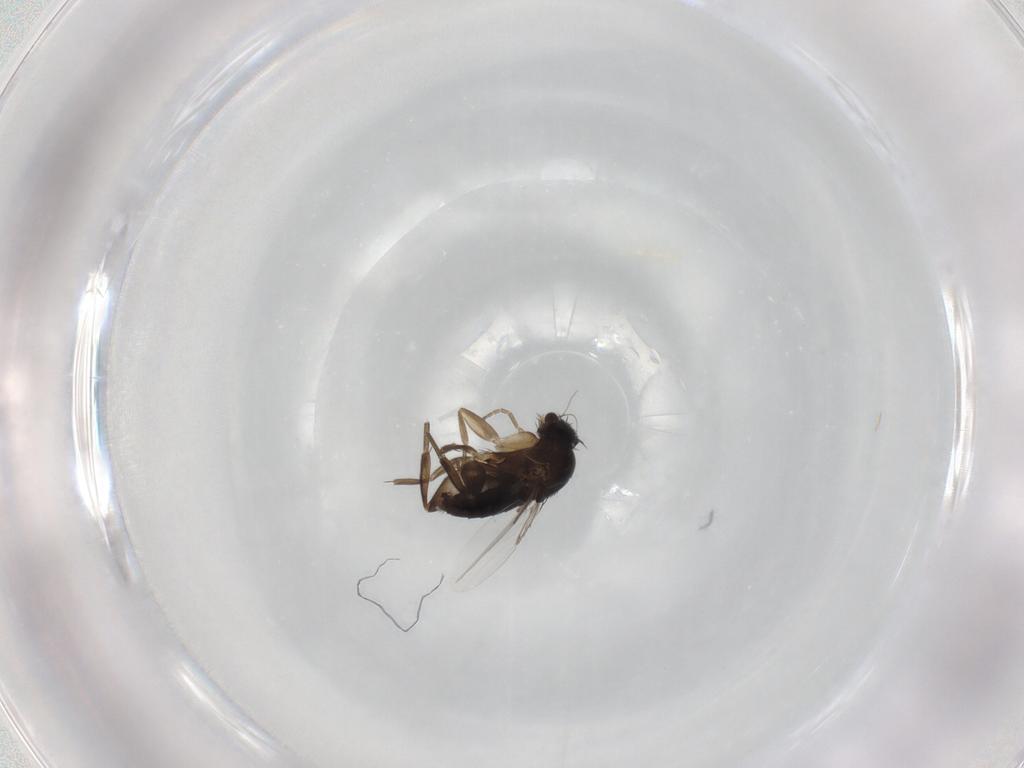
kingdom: Animalia
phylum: Arthropoda
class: Insecta
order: Diptera
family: Phoridae
